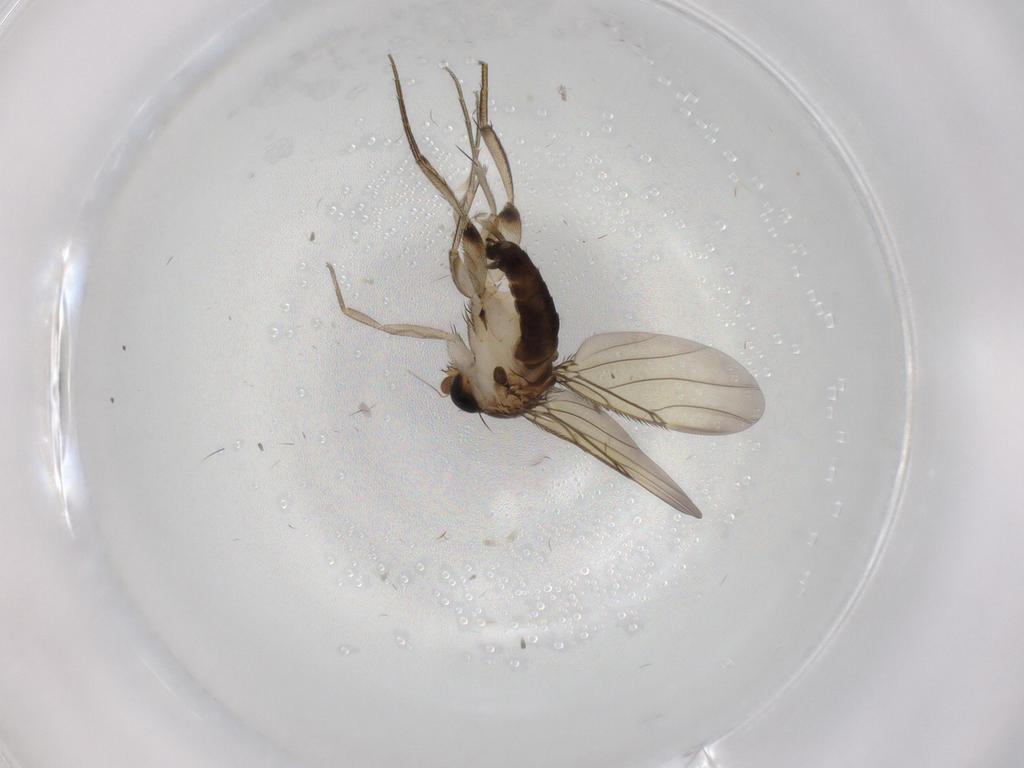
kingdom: Animalia
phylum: Arthropoda
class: Insecta
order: Diptera
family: Phoridae
